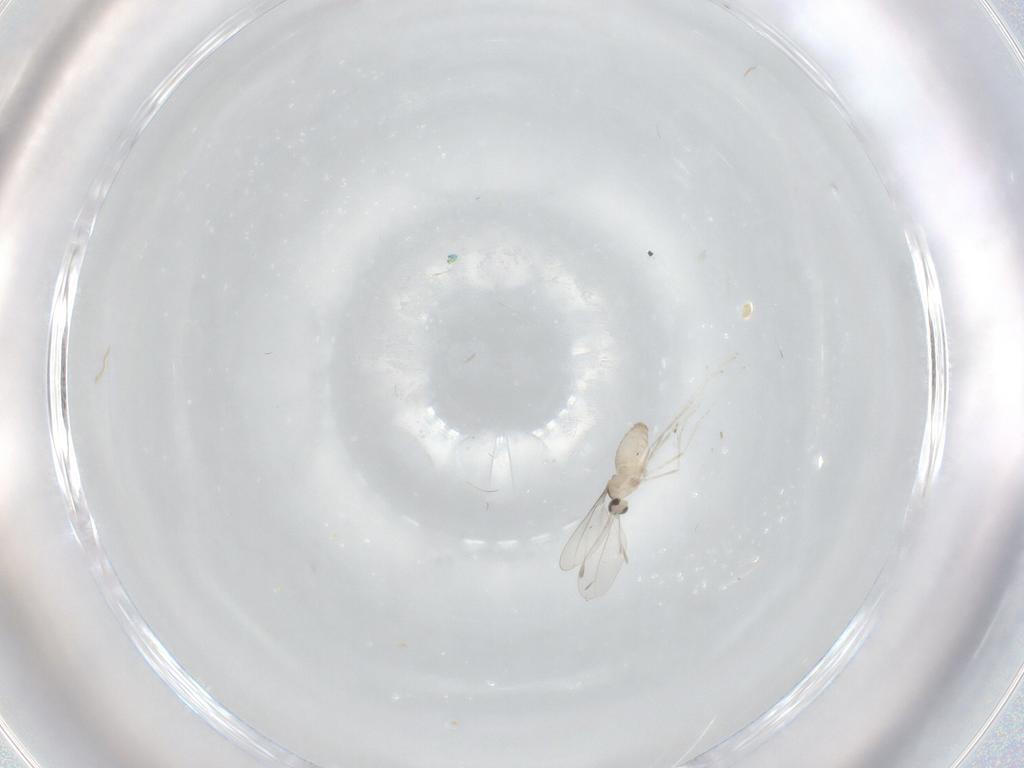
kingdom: Animalia
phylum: Arthropoda
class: Insecta
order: Diptera
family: Cecidomyiidae
